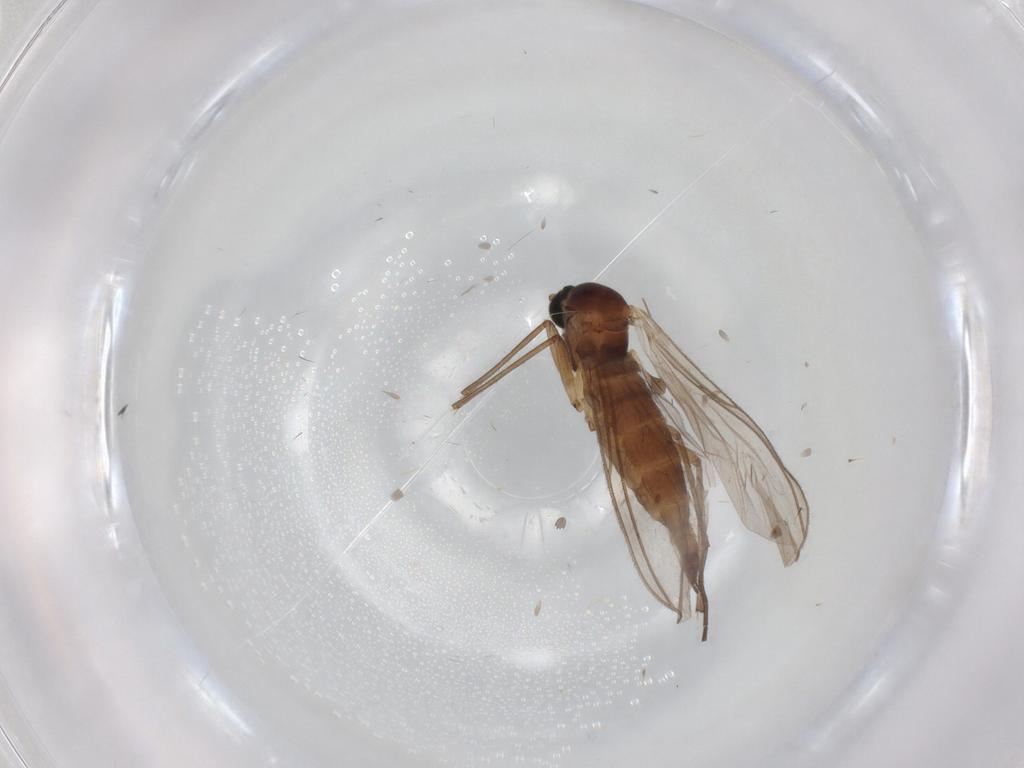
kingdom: Animalia
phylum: Arthropoda
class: Insecta
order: Diptera
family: Sciaridae
